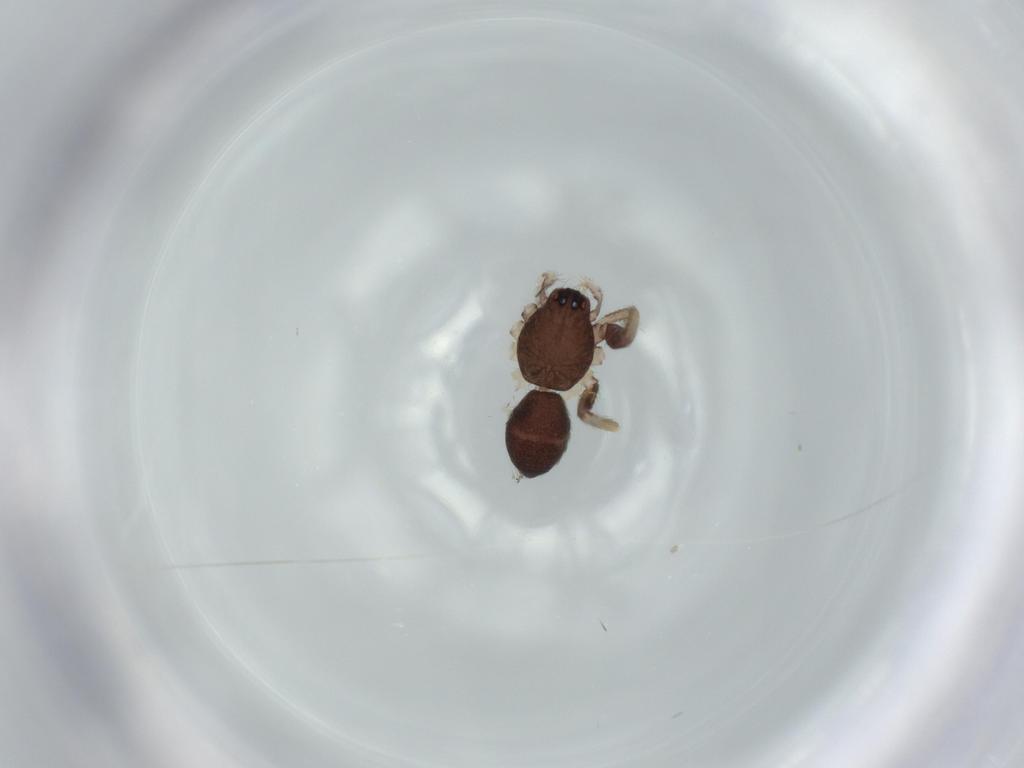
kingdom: Animalia
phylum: Arthropoda
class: Arachnida
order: Araneae
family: Corinnidae
